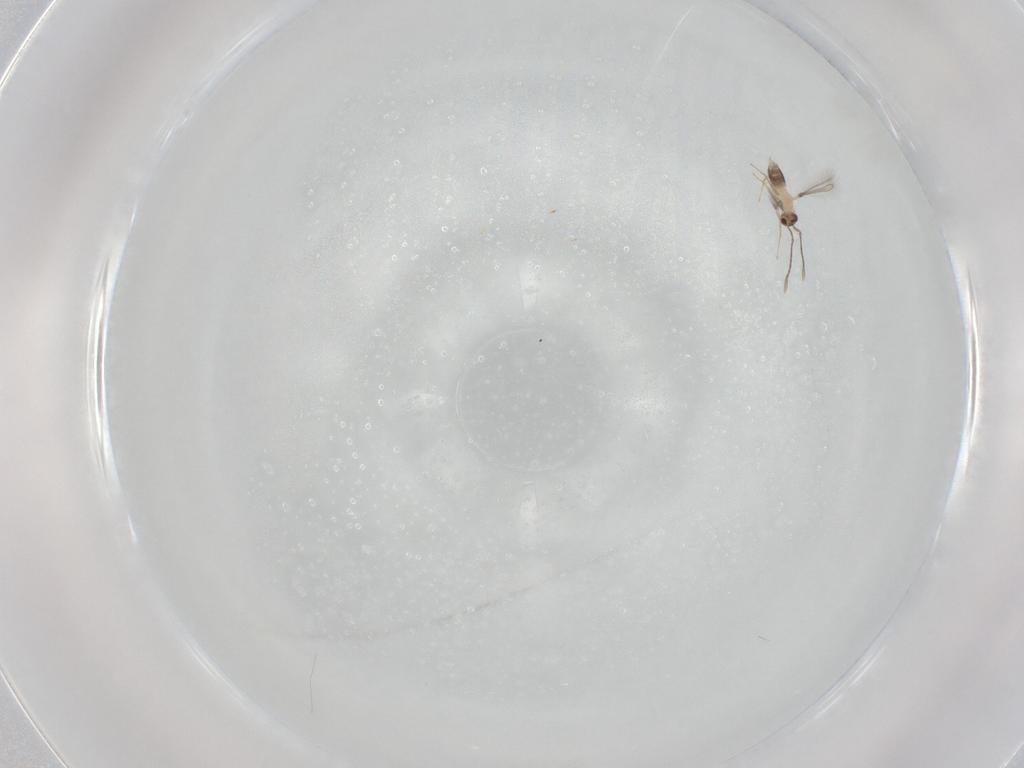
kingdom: Animalia
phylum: Arthropoda
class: Insecta
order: Hymenoptera
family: Mymaridae
